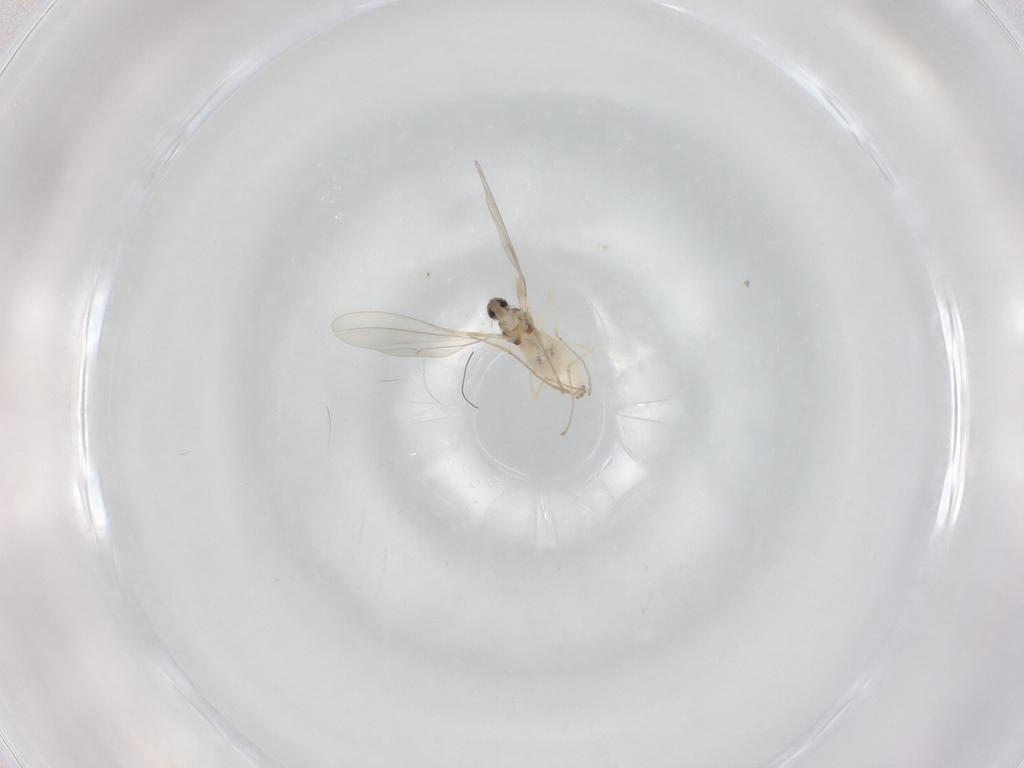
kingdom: Animalia
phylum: Arthropoda
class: Insecta
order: Diptera
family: Cecidomyiidae
